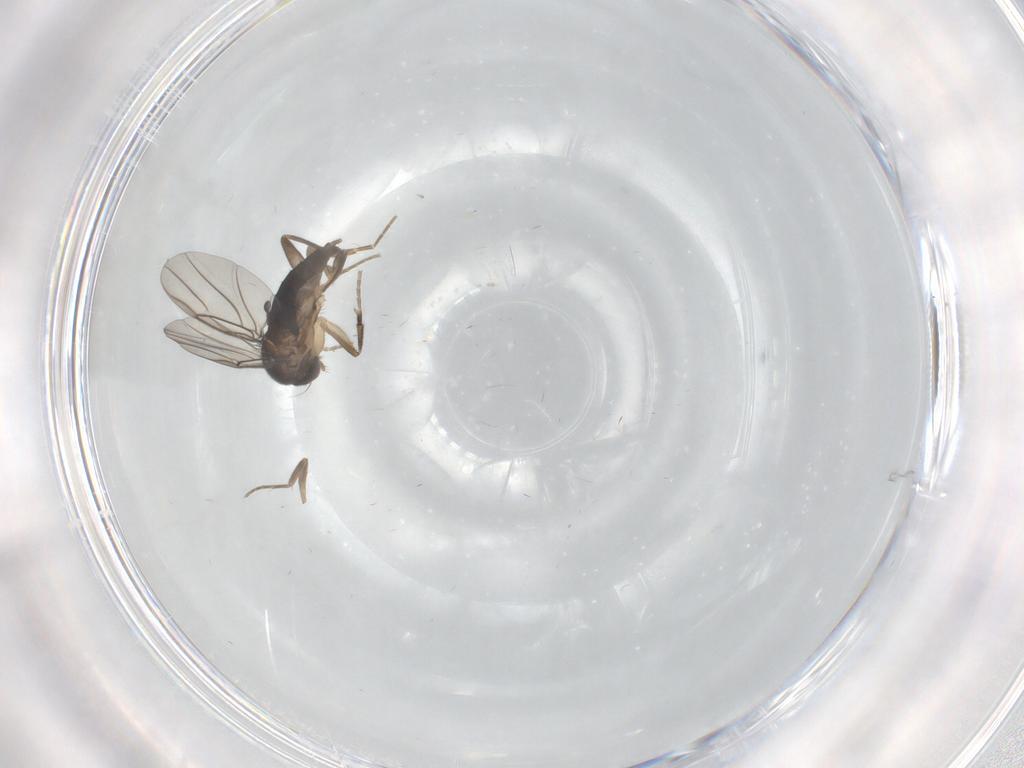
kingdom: Animalia
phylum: Arthropoda
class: Insecta
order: Diptera
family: Phoridae
